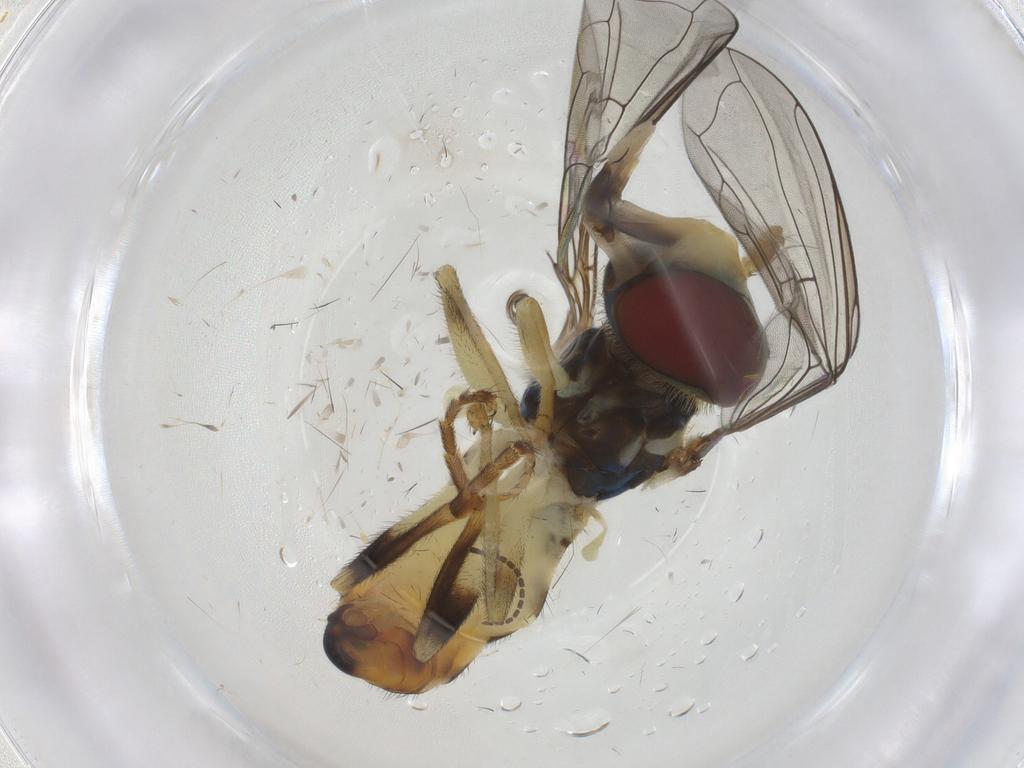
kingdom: Animalia
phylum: Arthropoda
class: Insecta
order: Diptera
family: Syrphidae
